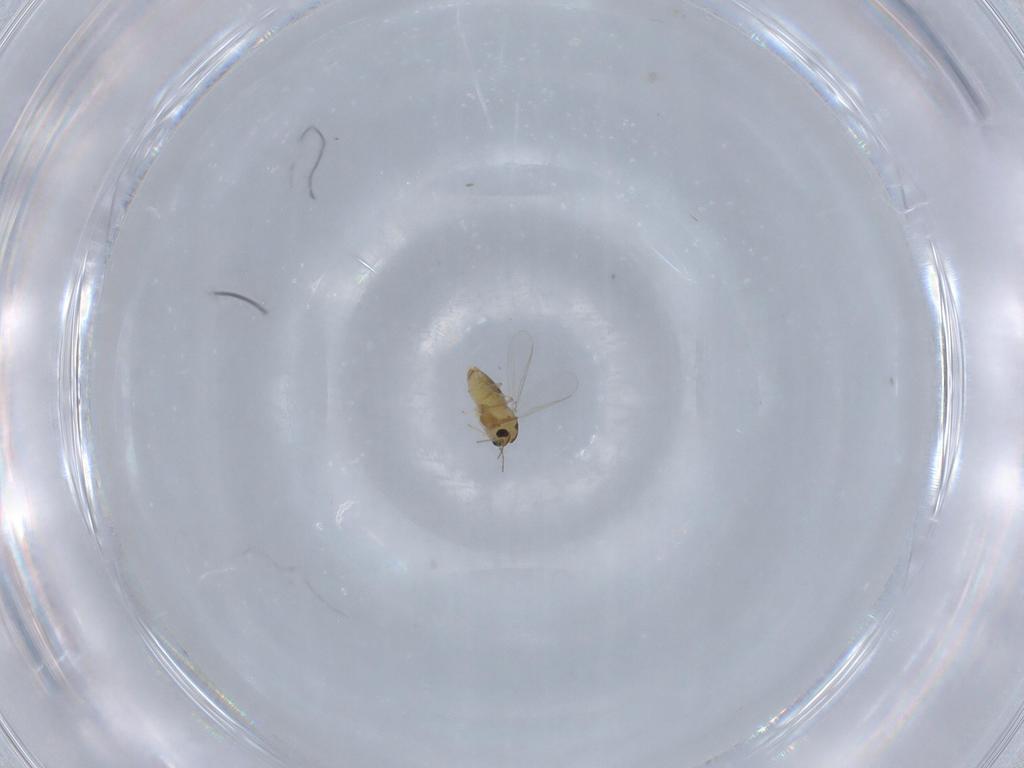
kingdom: Animalia
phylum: Arthropoda
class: Insecta
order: Diptera
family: Chironomidae
